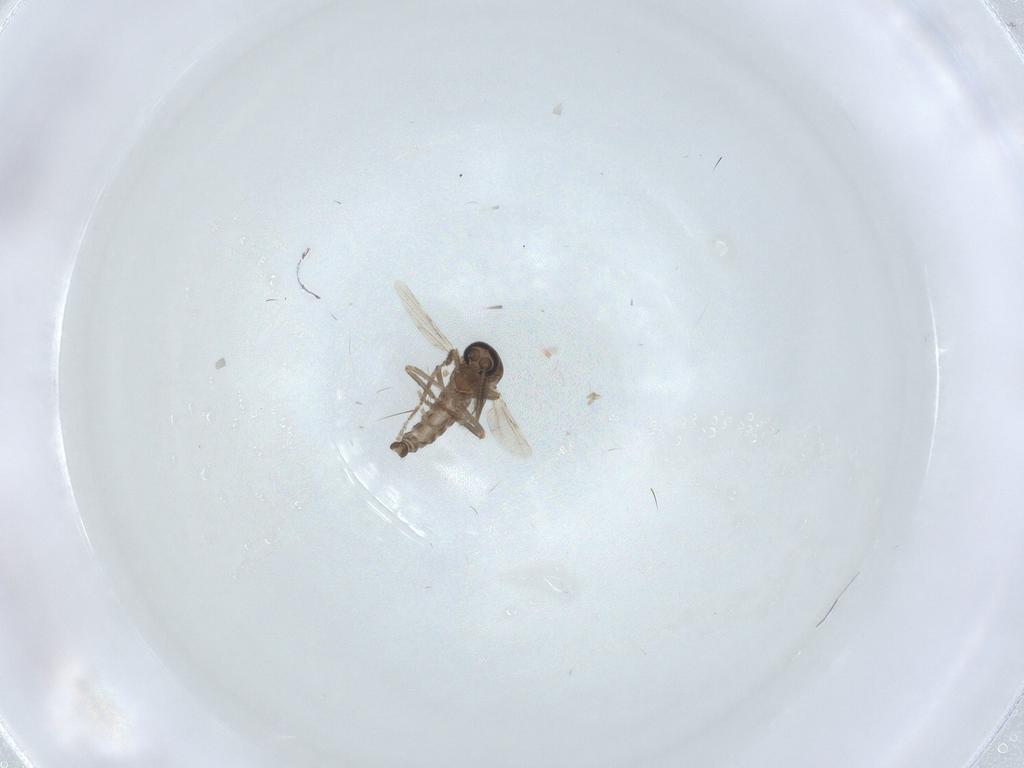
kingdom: Animalia
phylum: Arthropoda
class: Insecta
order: Diptera
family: Ceratopogonidae
